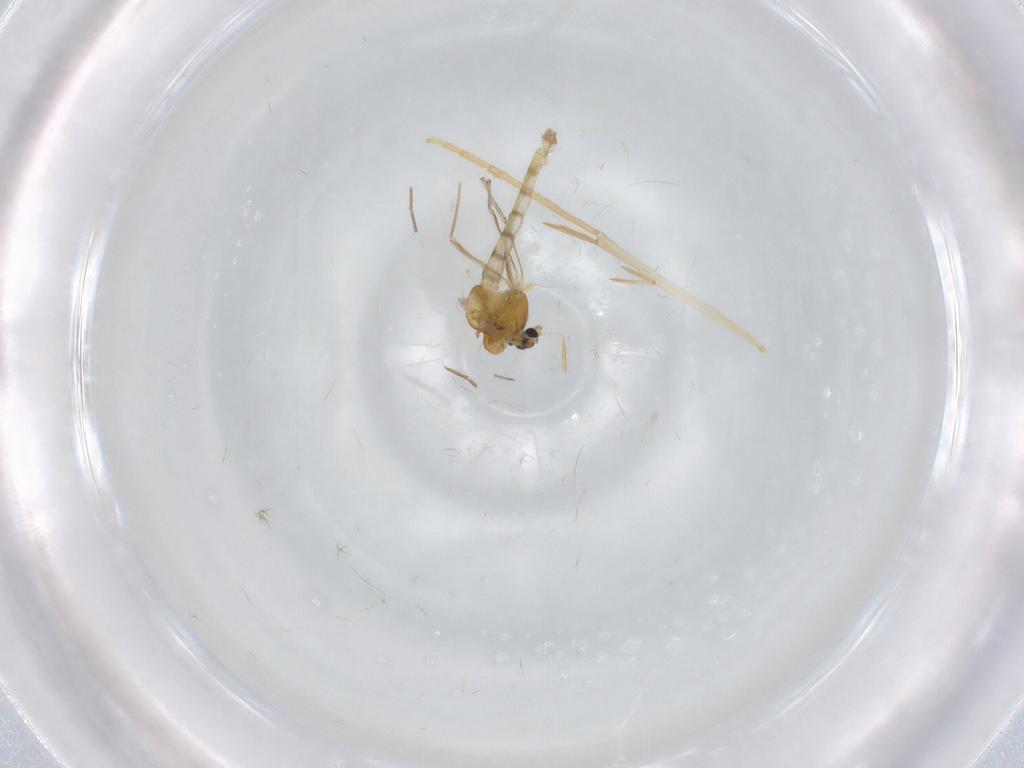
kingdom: Animalia
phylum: Arthropoda
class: Insecta
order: Diptera
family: Chironomidae
